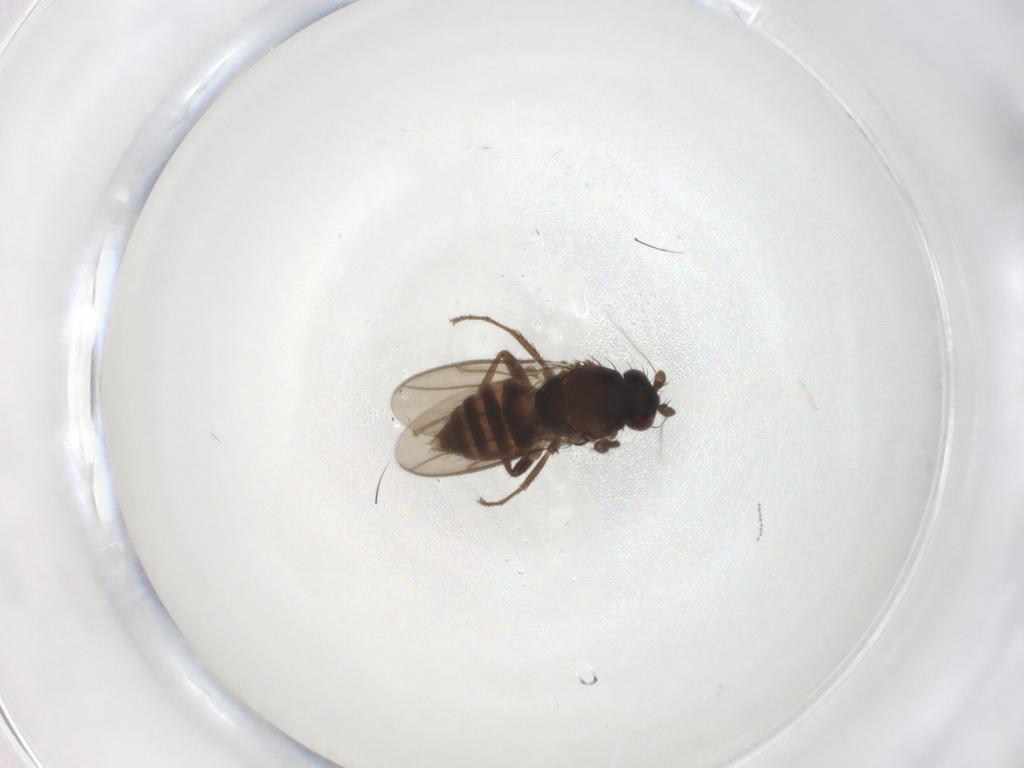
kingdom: Animalia
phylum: Arthropoda
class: Insecta
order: Diptera
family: Sphaeroceridae
